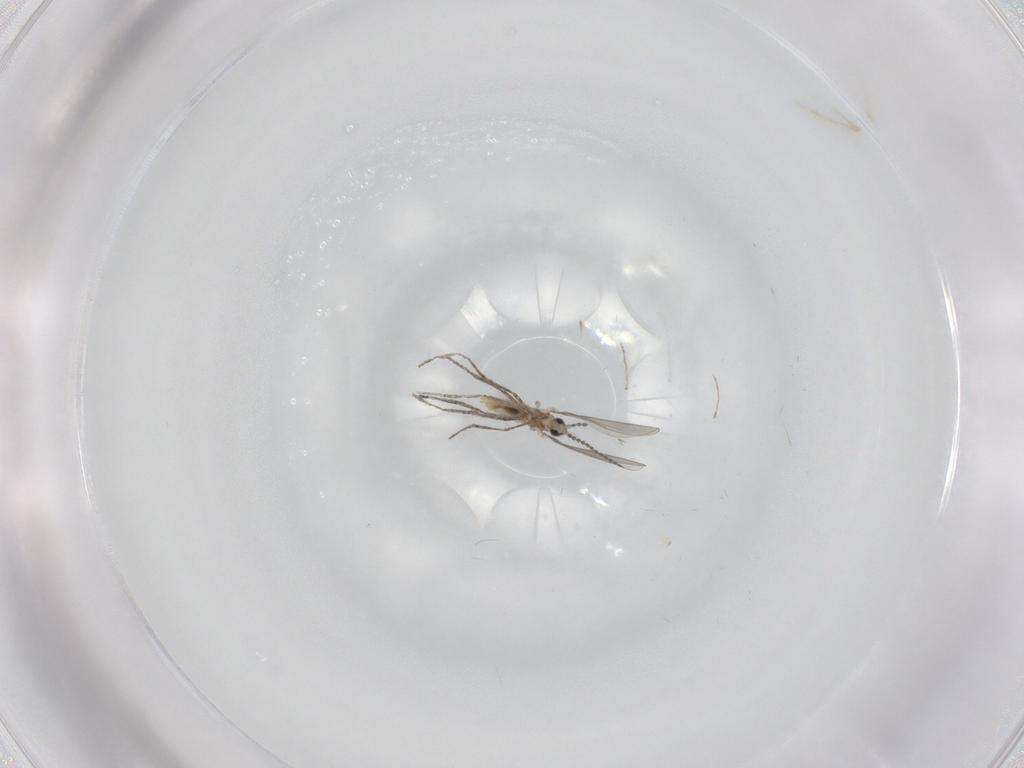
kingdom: Animalia
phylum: Arthropoda
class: Insecta
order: Diptera
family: Cecidomyiidae
